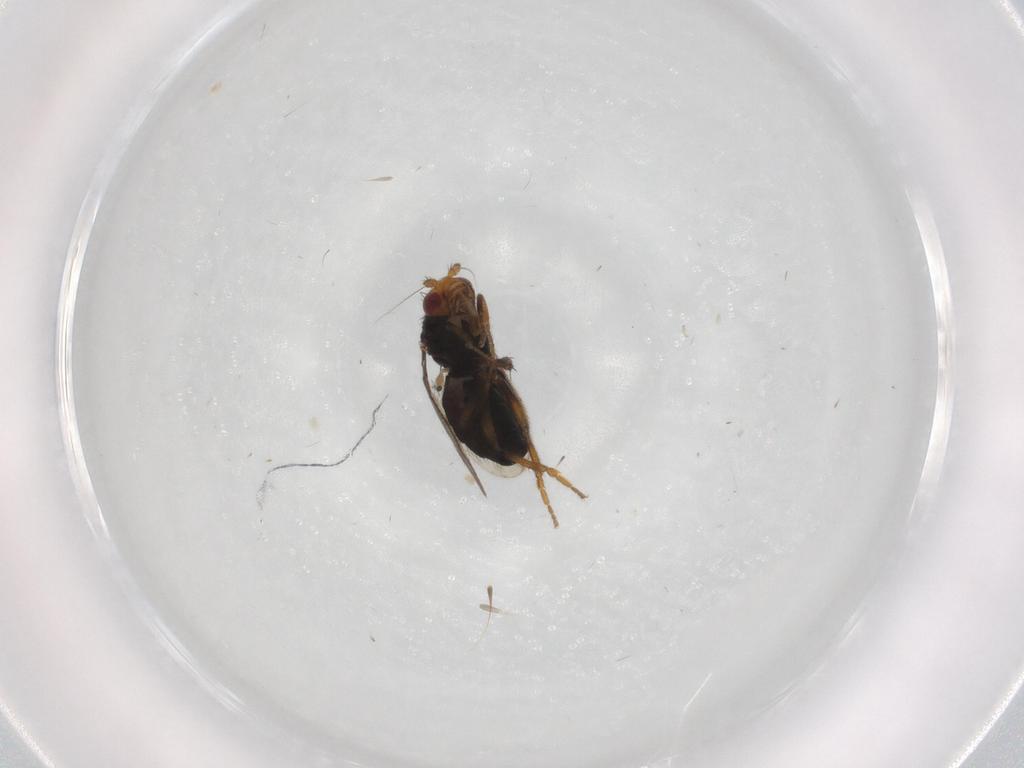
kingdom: Animalia
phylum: Arthropoda
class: Insecta
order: Diptera
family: Sphaeroceridae
